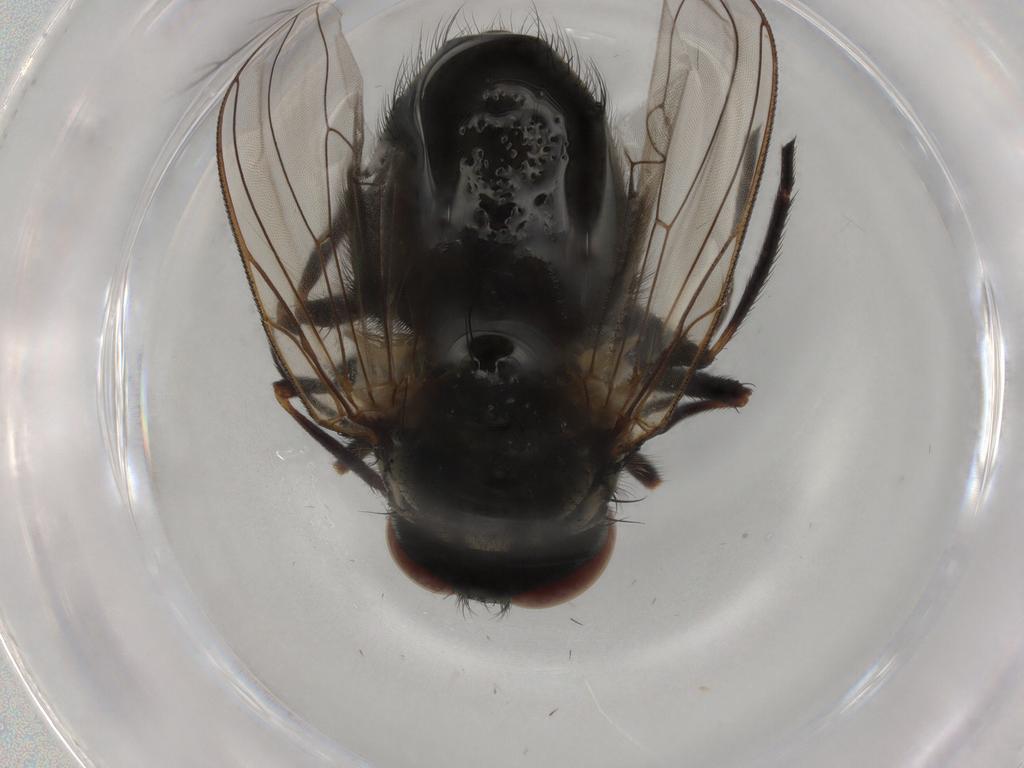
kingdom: Animalia
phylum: Arthropoda
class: Insecta
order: Diptera
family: Muscidae
